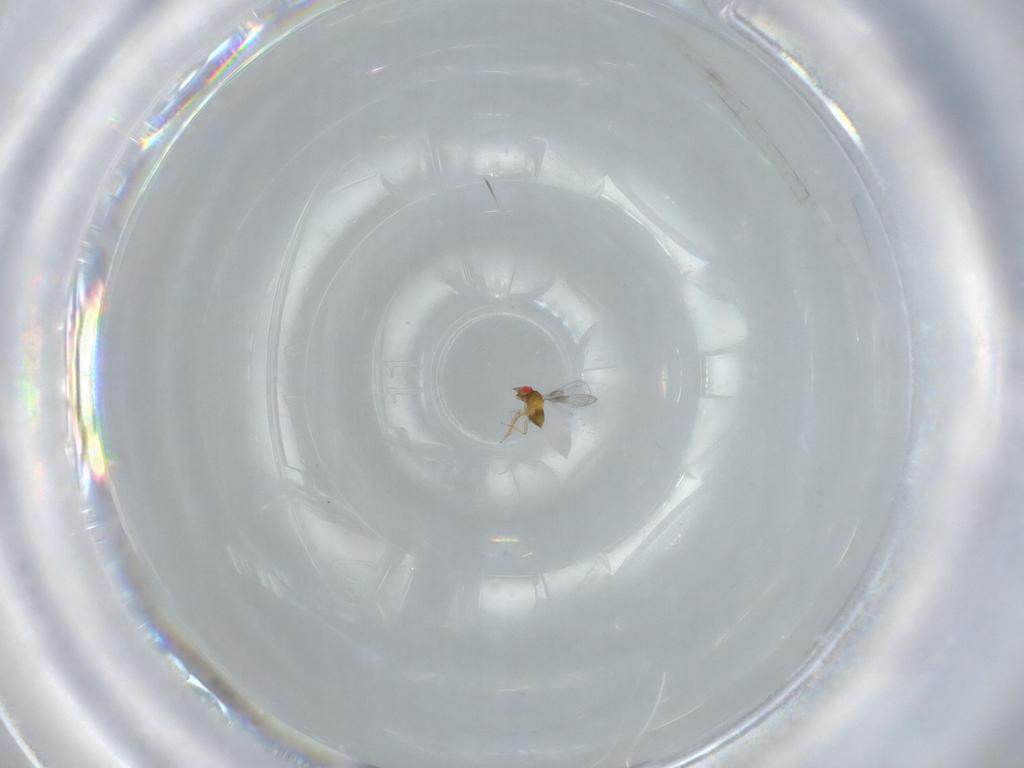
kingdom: Animalia
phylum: Arthropoda
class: Insecta
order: Hymenoptera
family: Trichogrammatidae
